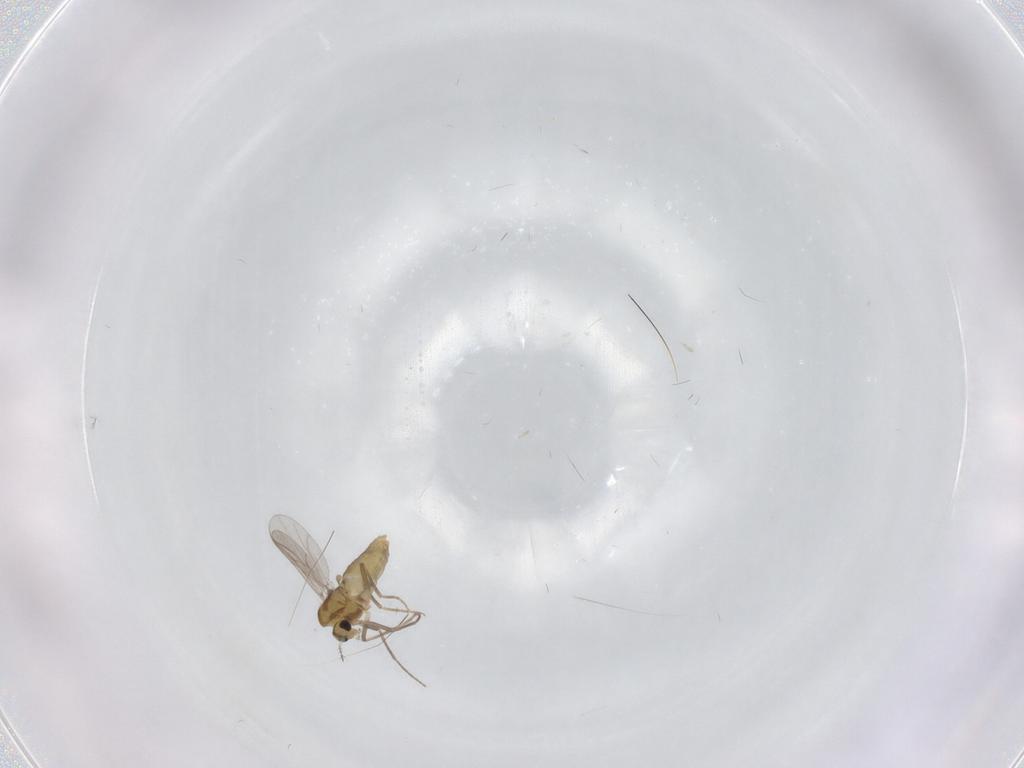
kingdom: Animalia
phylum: Arthropoda
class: Insecta
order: Diptera
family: Chironomidae
